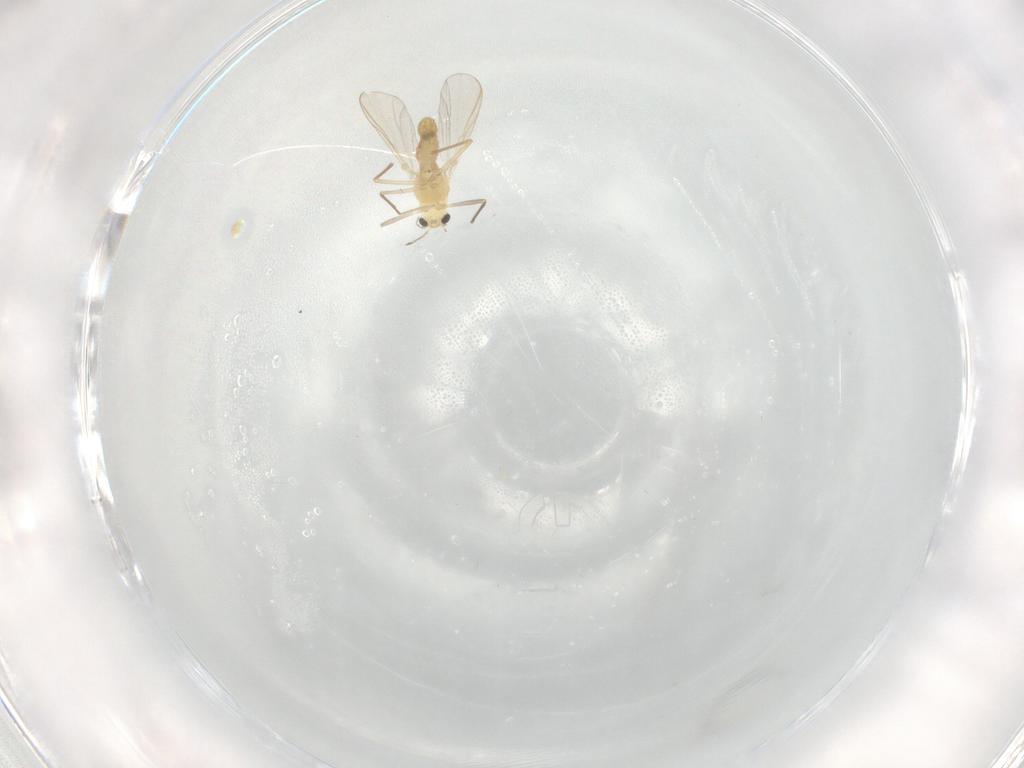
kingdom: Animalia
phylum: Arthropoda
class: Insecta
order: Diptera
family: Chironomidae
